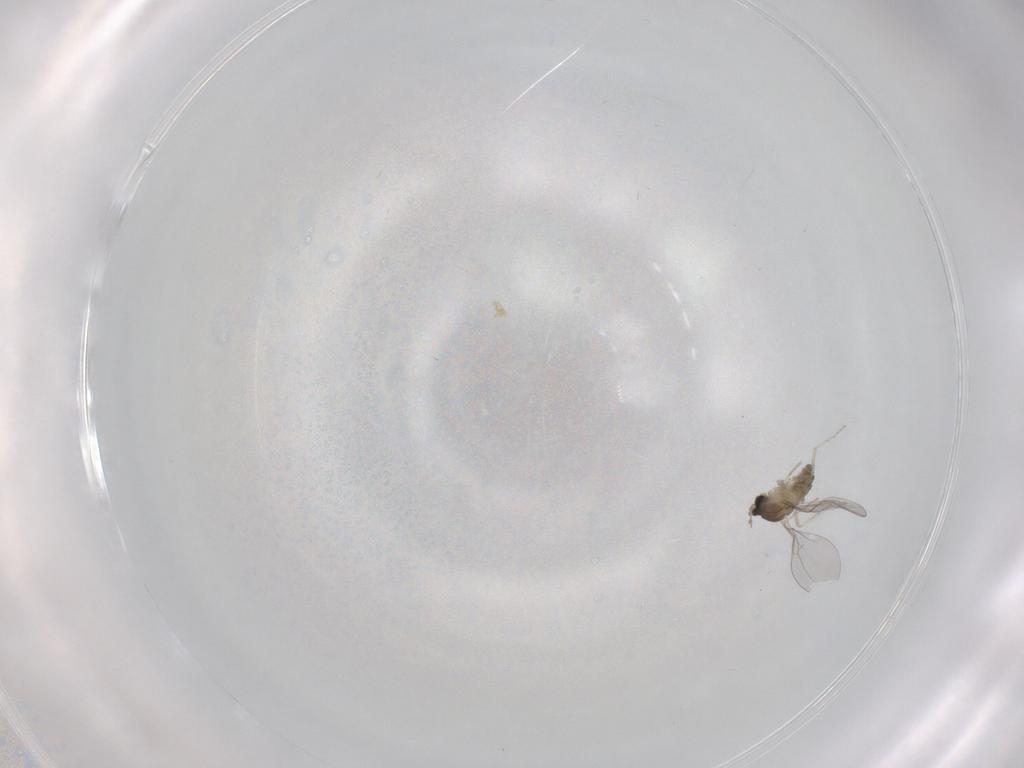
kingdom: Animalia
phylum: Arthropoda
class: Insecta
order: Diptera
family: Cecidomyiidae
